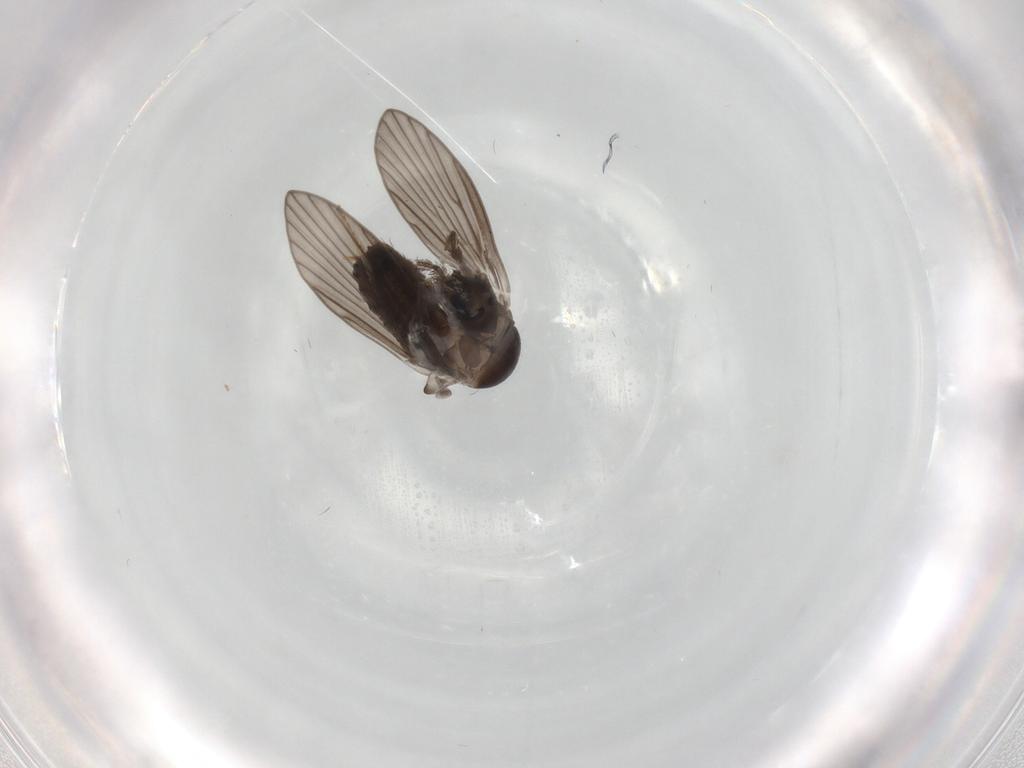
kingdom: Animalia
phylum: Arthropoda
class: Insecta
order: Diptera
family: Psychodidae
